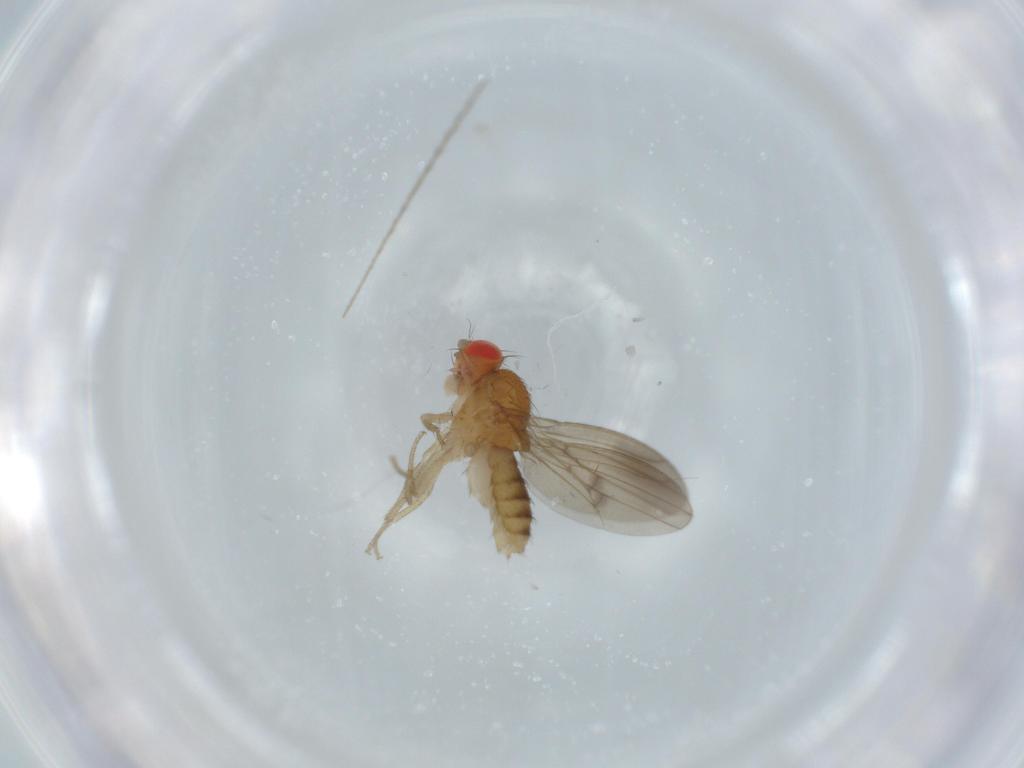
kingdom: Animalia
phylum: Arthropoda
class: Insecta
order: Diptera
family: Drosophilidae
